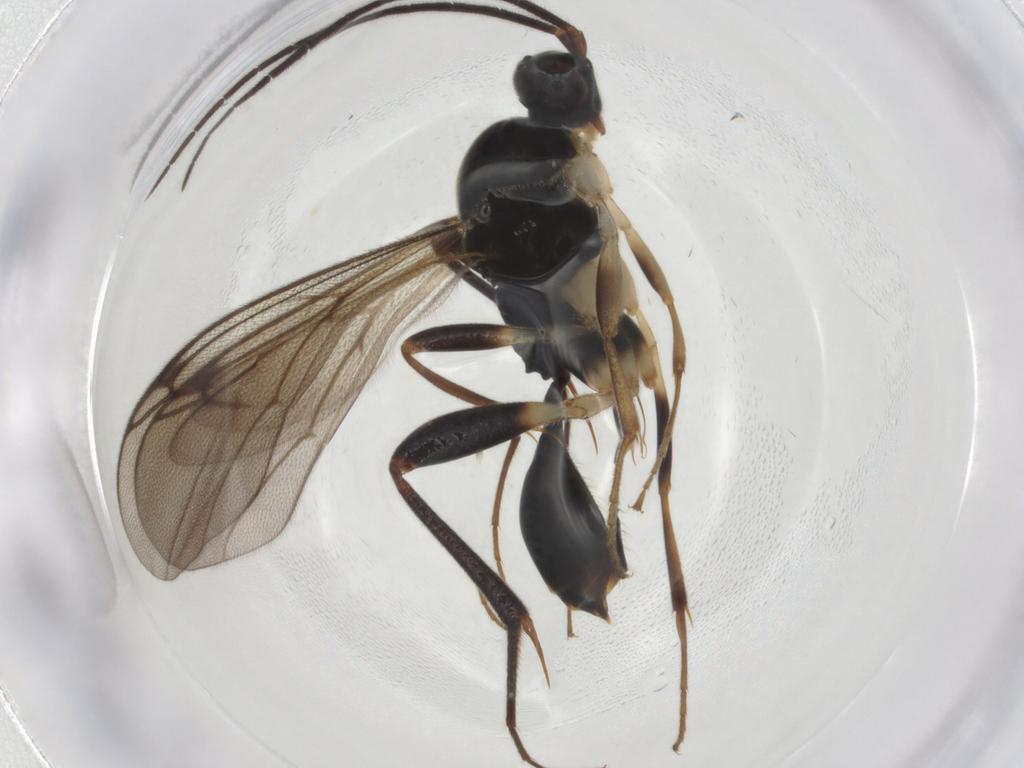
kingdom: Animalia
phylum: Arthropoda
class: Insecta
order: Hymenoptera
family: Proctotrupidae
